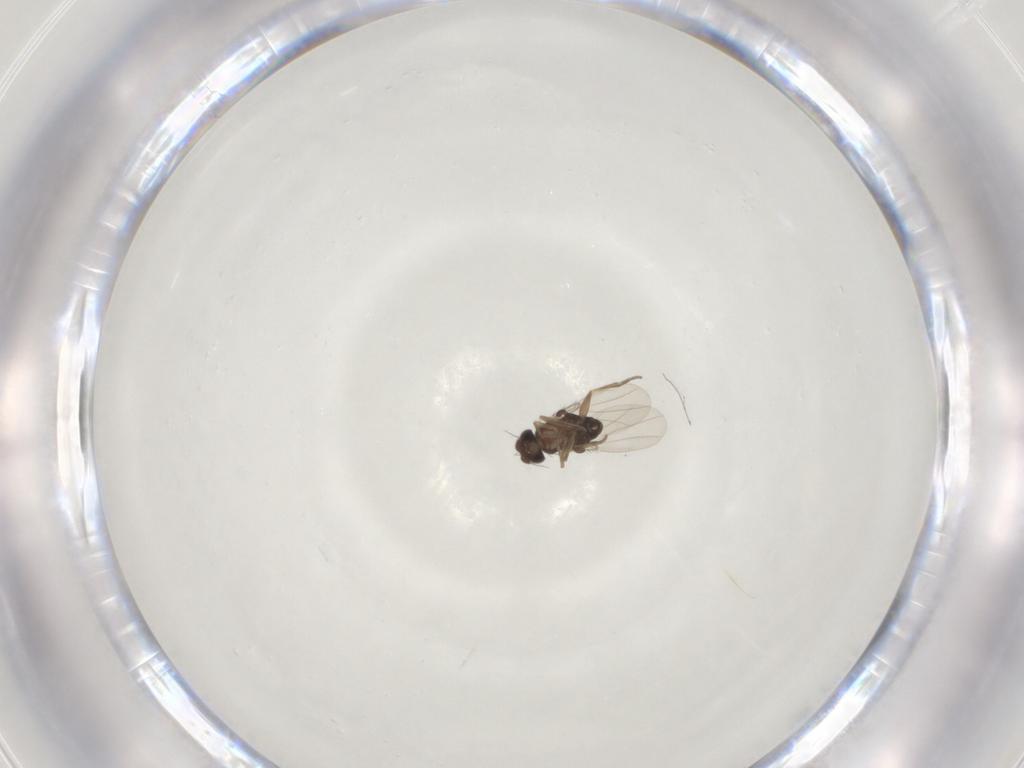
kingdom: Animalia
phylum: Arthropoda
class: Insecta
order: Diptera
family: Phoridae
